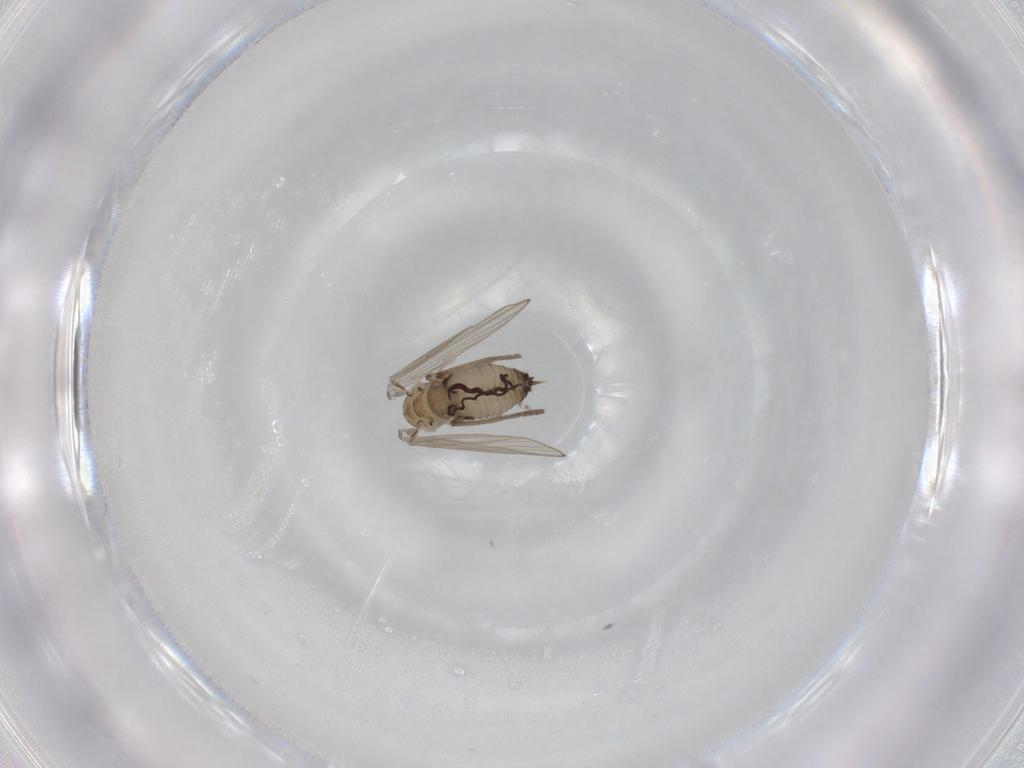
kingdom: Animalia
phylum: Arthropoda
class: Insecta
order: Diptera
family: Psychodidae
